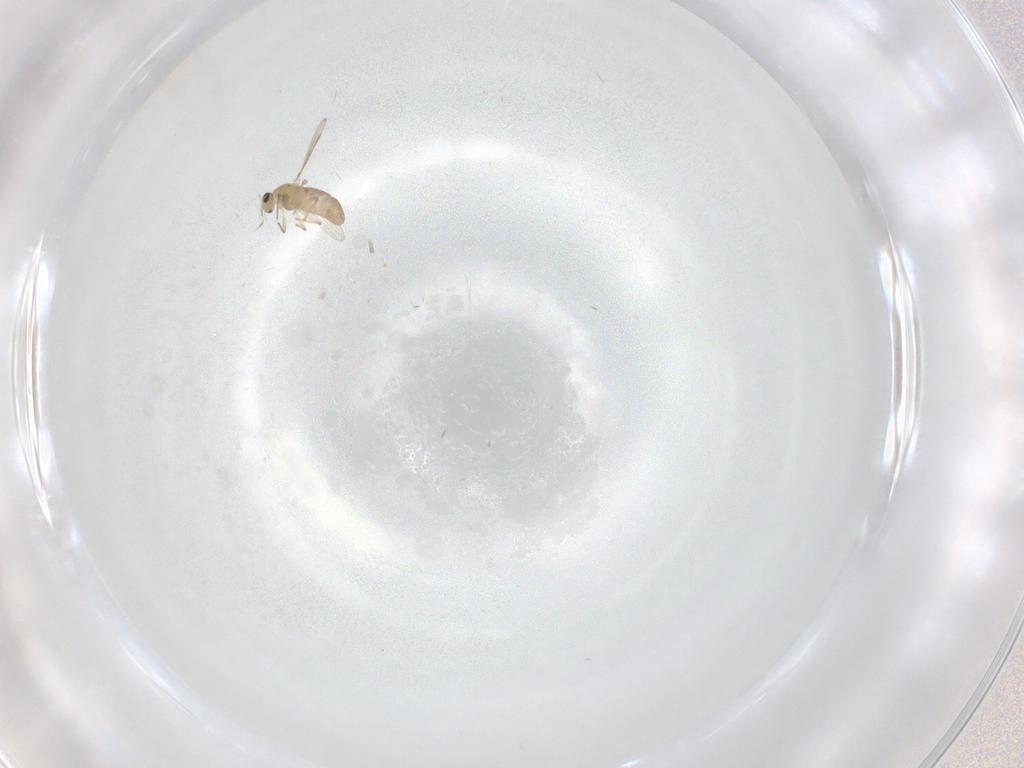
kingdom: Animalia
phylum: Arthropoda
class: Insecta
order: Diptera
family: Chironomidae
